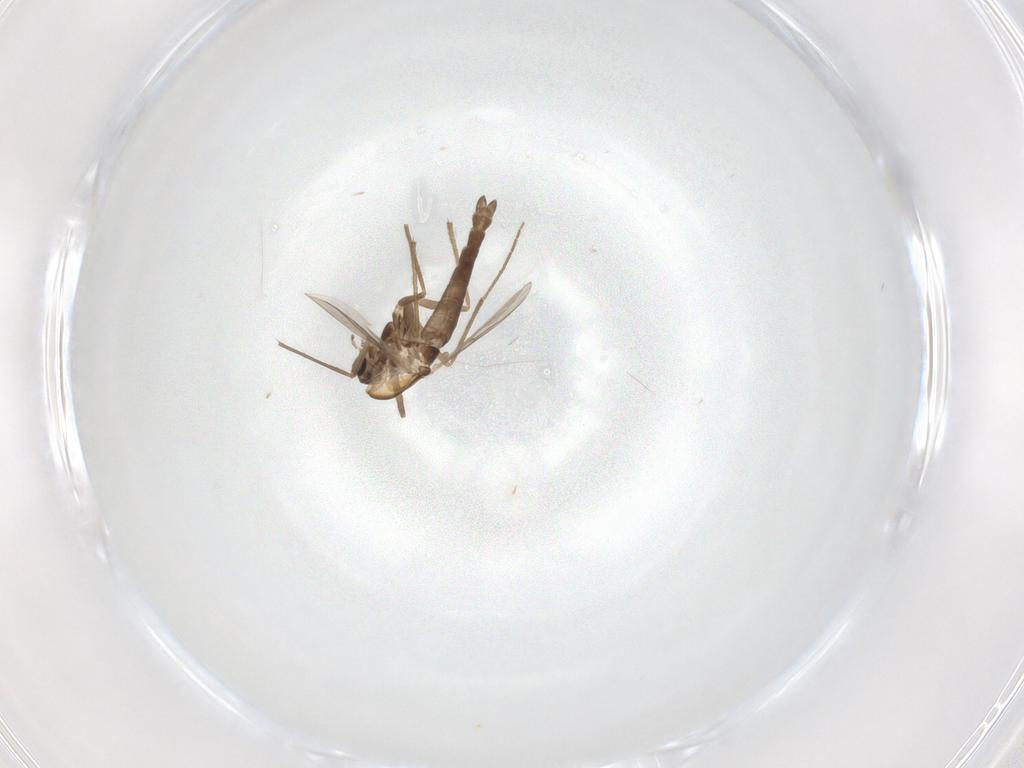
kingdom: Animalia
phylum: Arthropoda
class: Insecta
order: Diptera
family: Chironomidae
